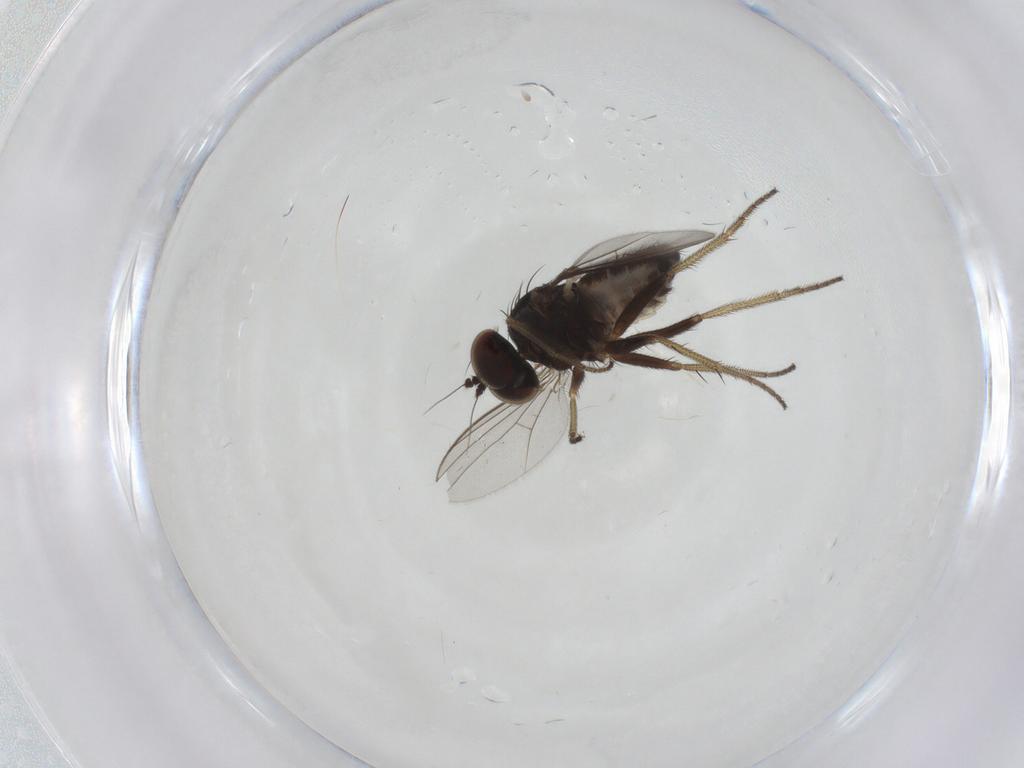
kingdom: Animalia
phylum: Arthropoda
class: Insecta
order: Diptera
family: Dolichopodidae
